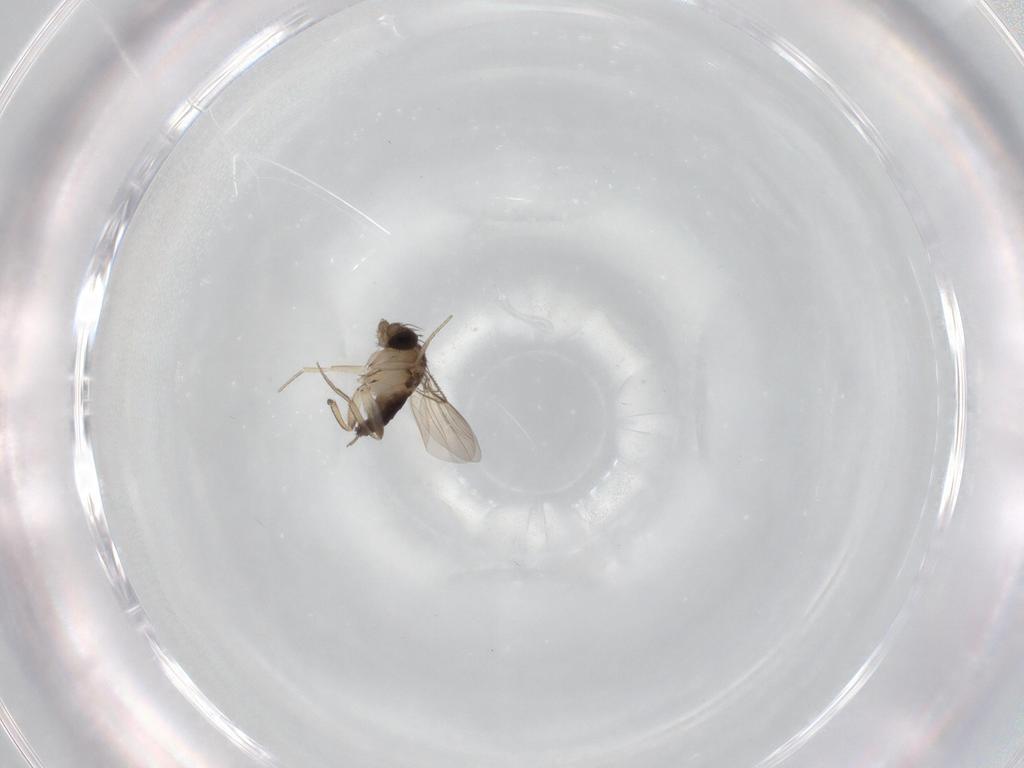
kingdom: Animalia
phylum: Arthropoda
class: Insecta
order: Diptera
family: Phoridae
